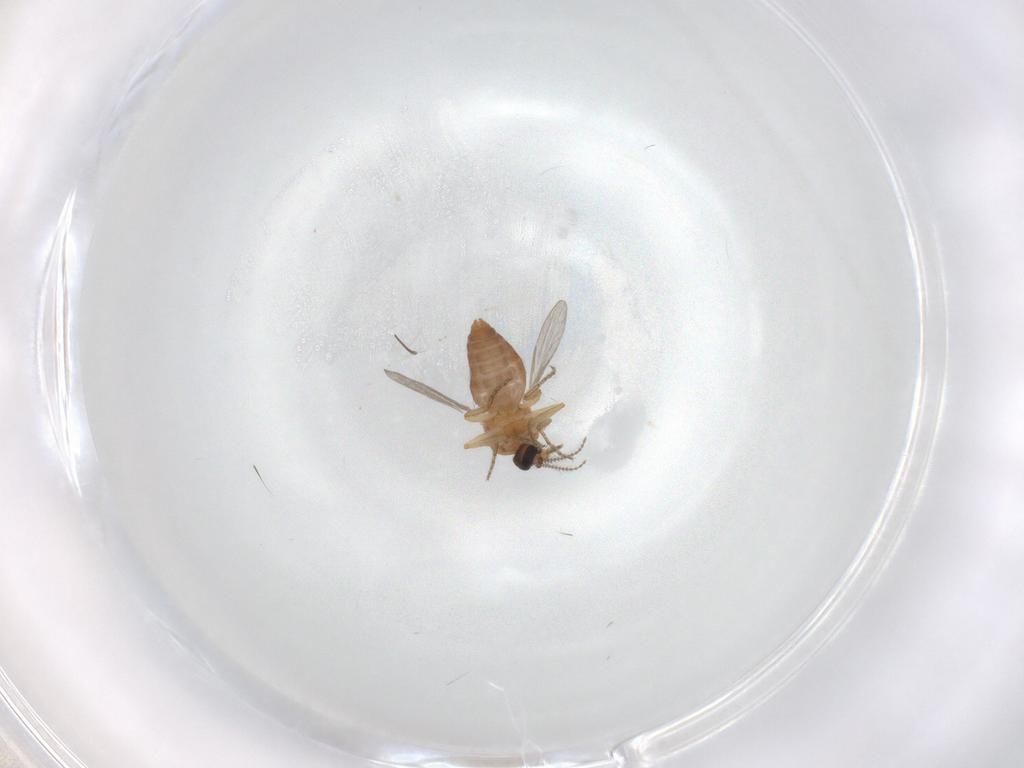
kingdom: Animalia
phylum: Arthropoda
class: Insecta
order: Diptera
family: Ceratopogonidae
